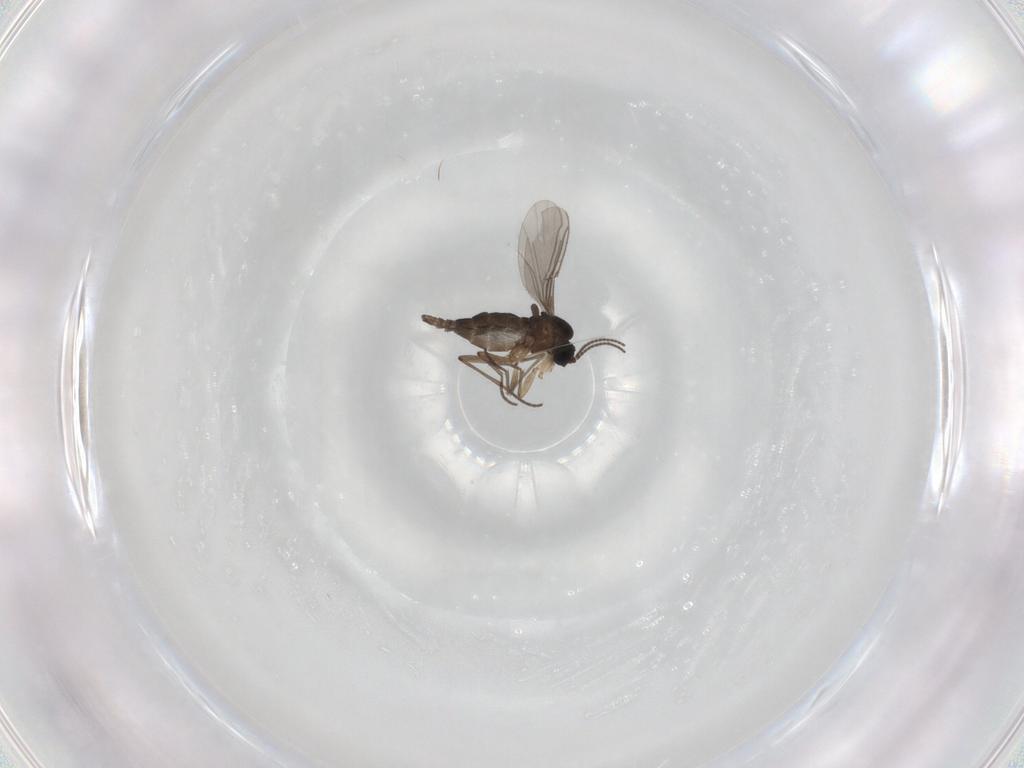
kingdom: Animalia
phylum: Arthropoda
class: Insecta
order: Diptera
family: Sciaridae
